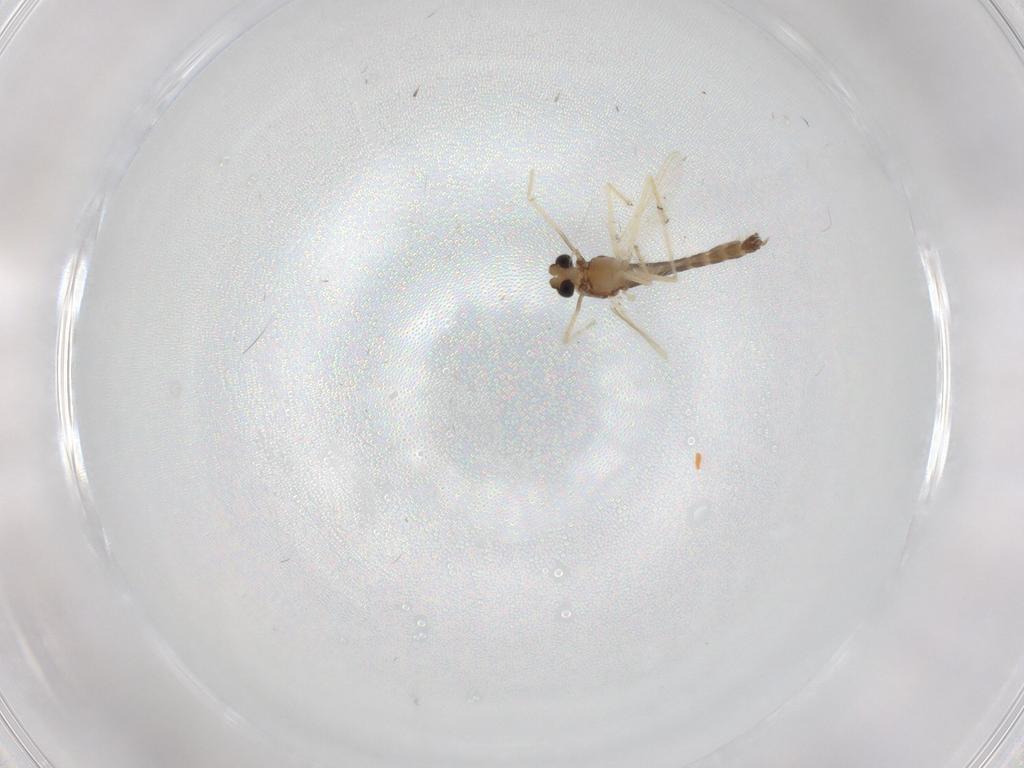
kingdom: Animalia
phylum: Arthropoda
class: Insecta
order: Diptera
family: Chironomidae
